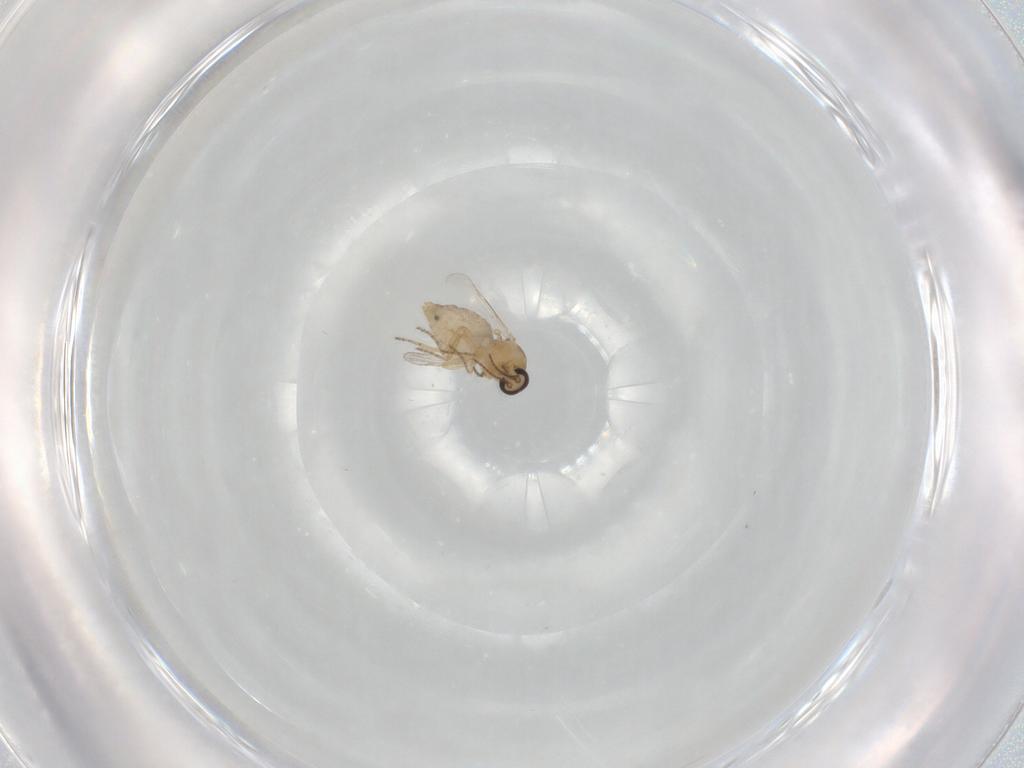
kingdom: Animalia
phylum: Arthropoda
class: Insecta
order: Diptera
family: Ceratopogonidae
